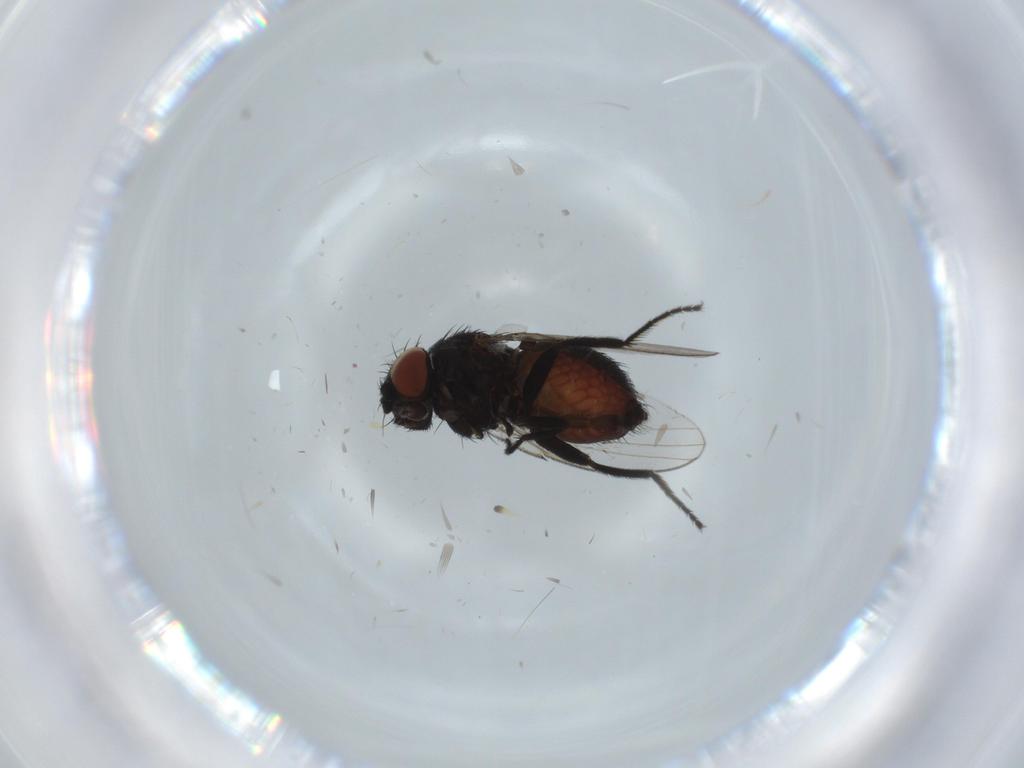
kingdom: Animalia
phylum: Arthropoda
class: Insecta
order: Diptera
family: Milichiidae
